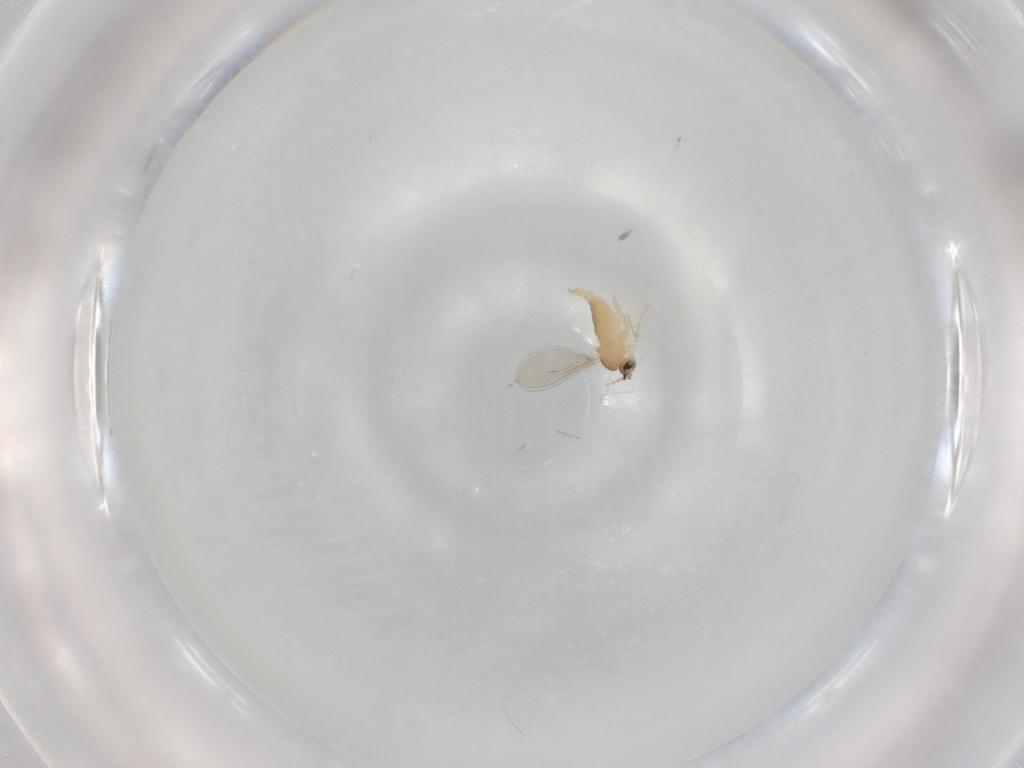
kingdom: Animalia
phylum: Arthropoda
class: Insecta
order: Diptera
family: Cecidomyiidae
